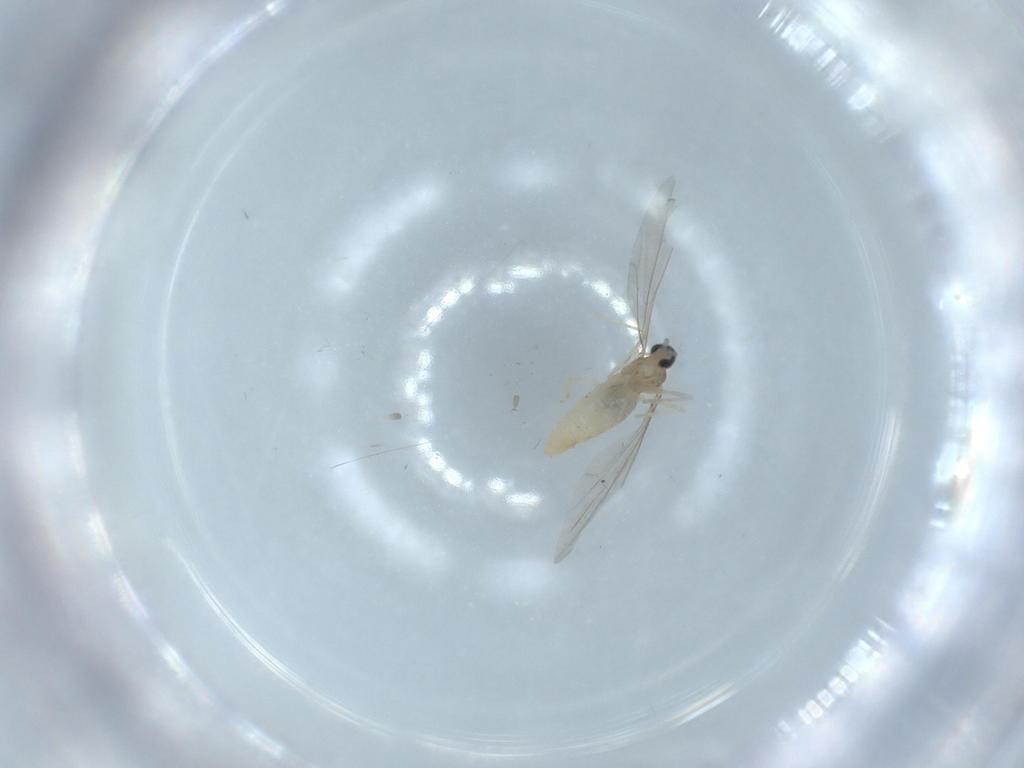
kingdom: Animalia
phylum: Arthropoda
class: Insecta
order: Diptera
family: Cecidomyiidae
